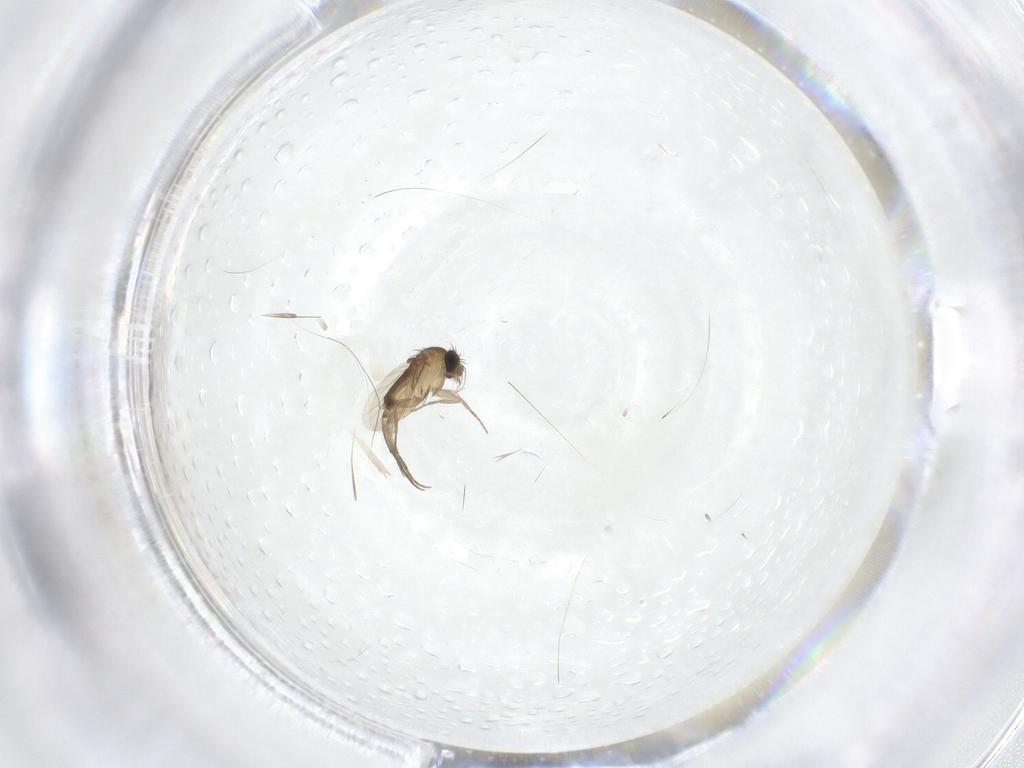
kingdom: Animalia
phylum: Arthropoda
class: Insecta
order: Diptera
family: Phoridae
